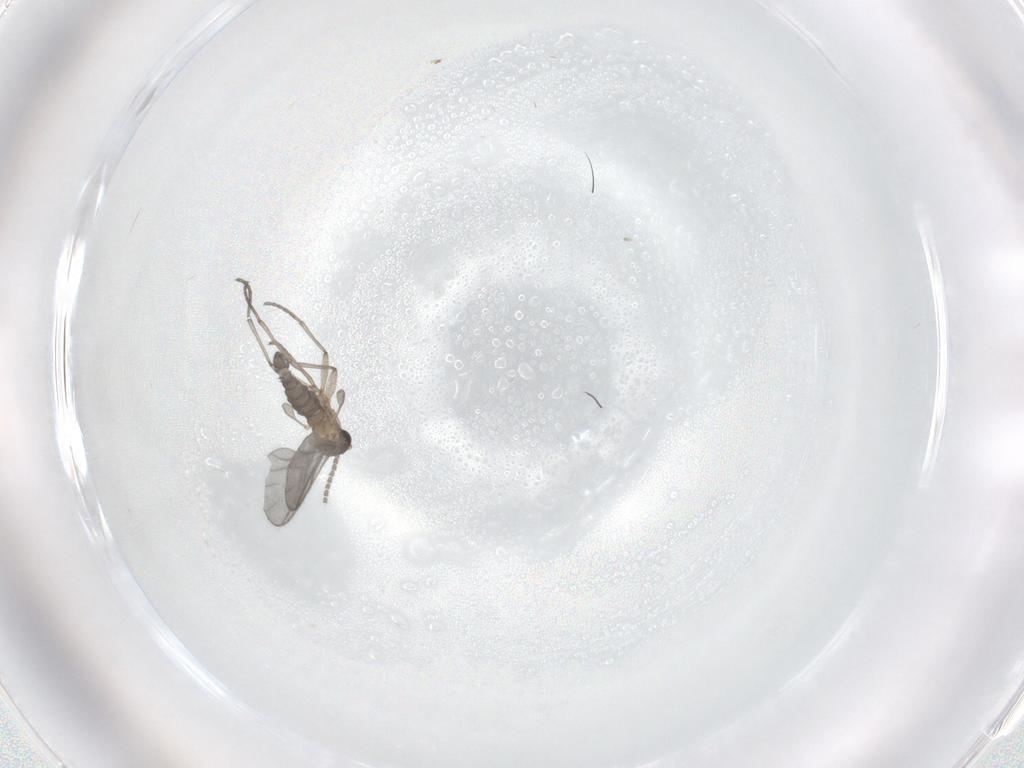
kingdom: Animalia
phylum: Arthropoda
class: Insecta
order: Diptera
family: Sciaridae
